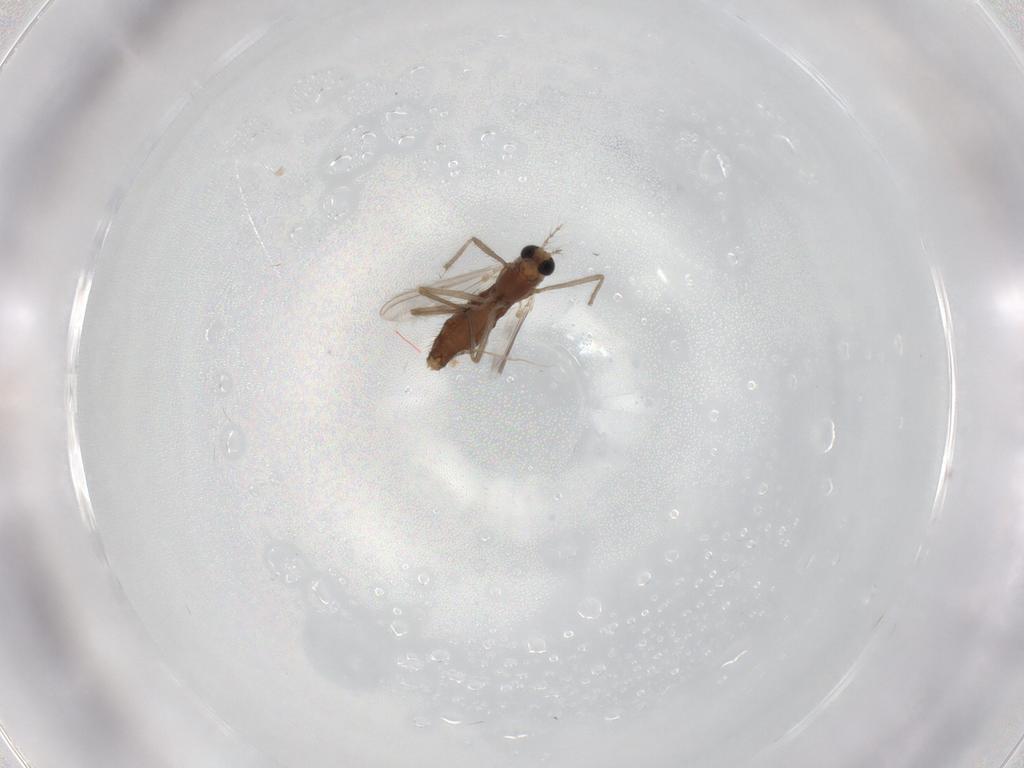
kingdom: Animalia
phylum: Arthropoda
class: Insecta
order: Diptera
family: Chironomidae
